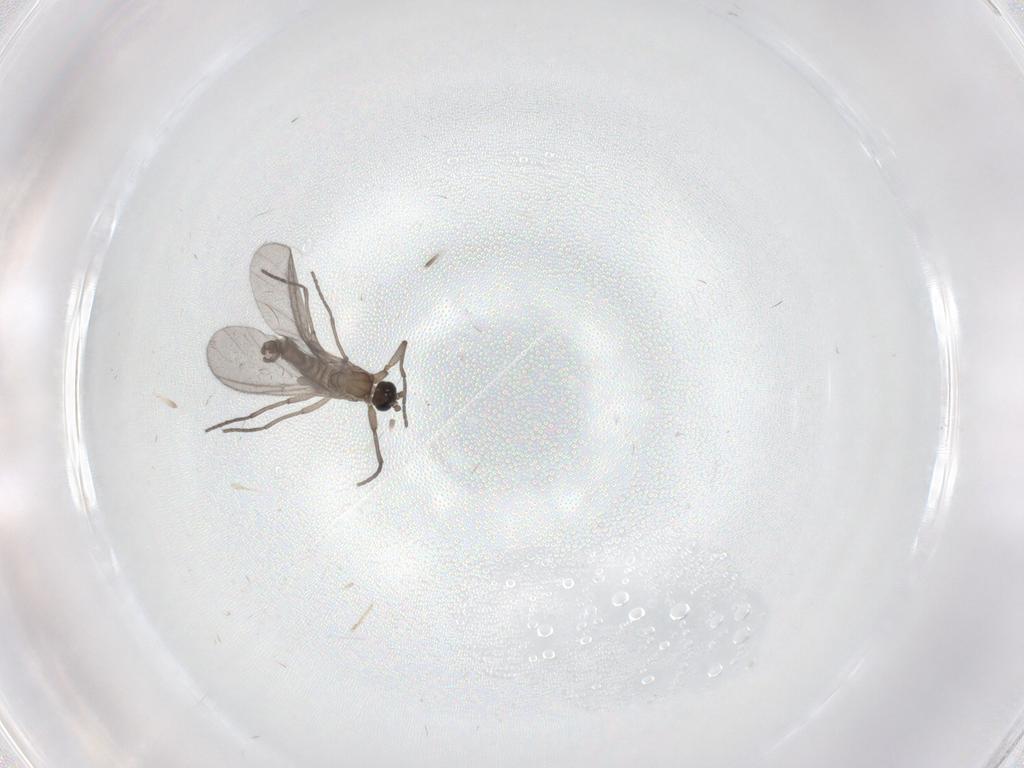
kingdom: Animalia
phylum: Arthropoda
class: Insecta
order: Diptera
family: Sciaridae
